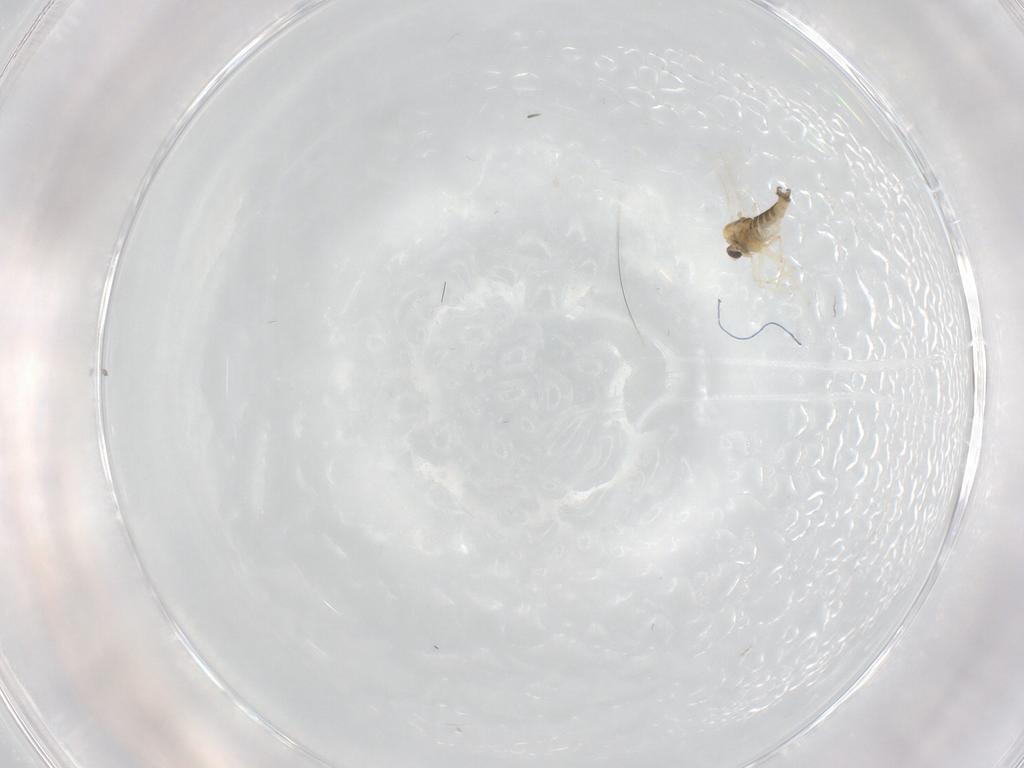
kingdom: Animalia
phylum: Arthropoda
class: Insecta
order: Diptera
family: Chironomidae
